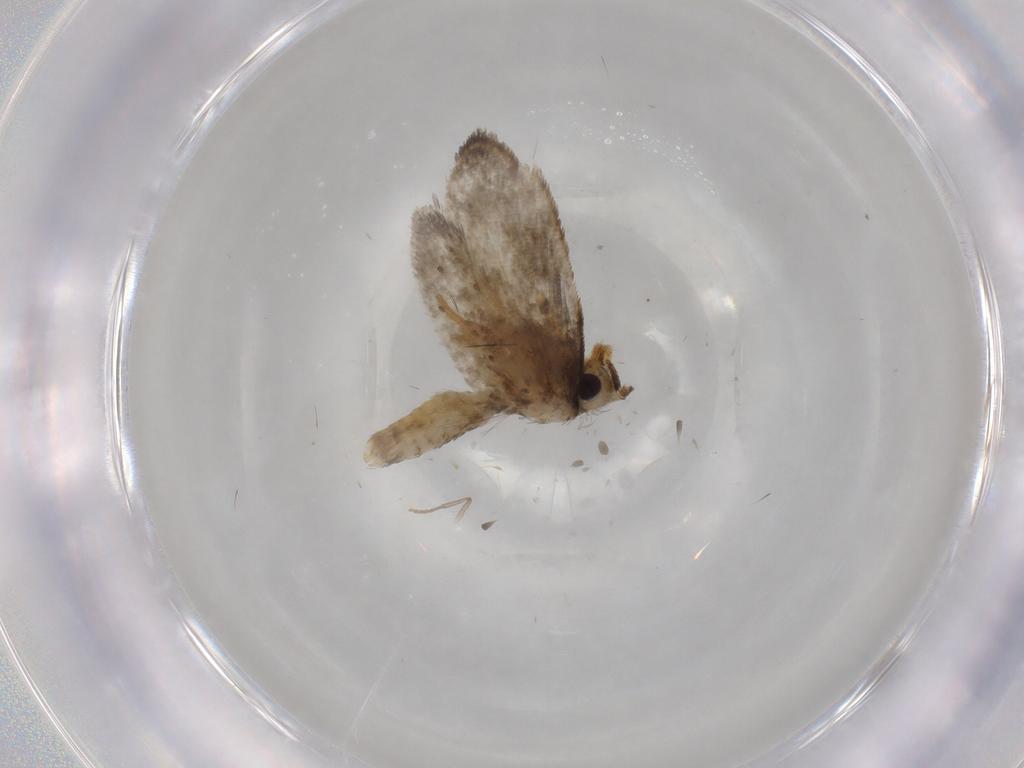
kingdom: Animalia
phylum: Arthropoda
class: Insecta
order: Lepidoptera
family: Psychidae
